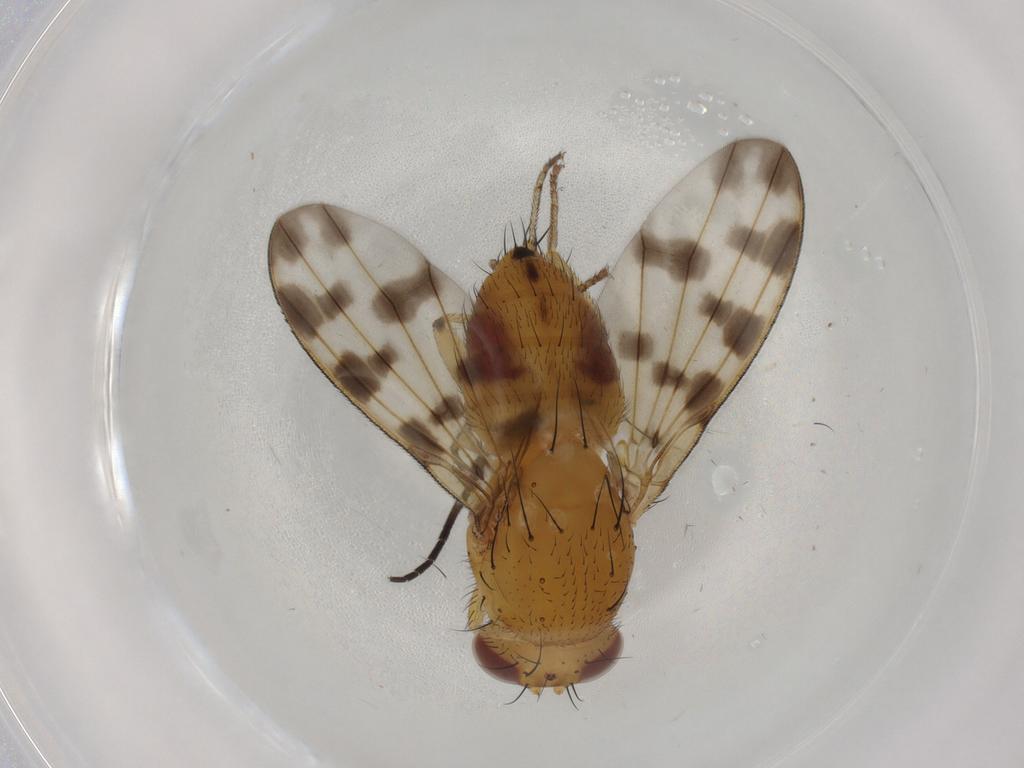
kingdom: Animalia
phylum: Arthropoda
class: Insecta
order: Diptera
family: Sciaridae
